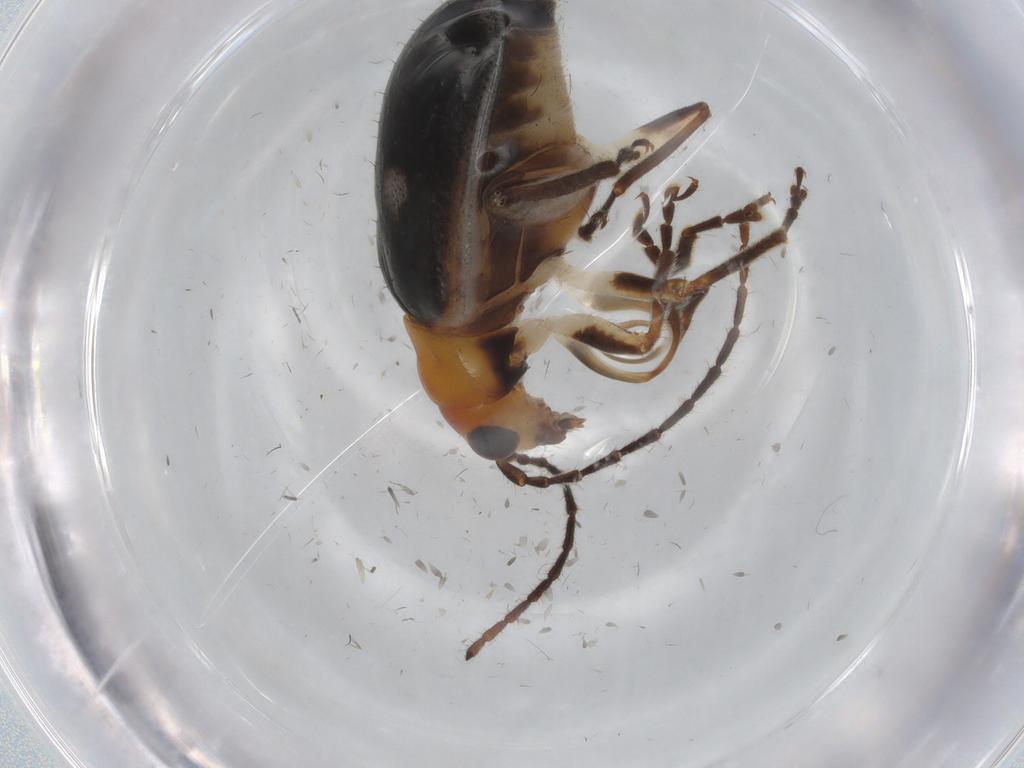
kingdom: Animalia
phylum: Arthropoda
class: Insecta
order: Coleoptera
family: Chrysomelidae
